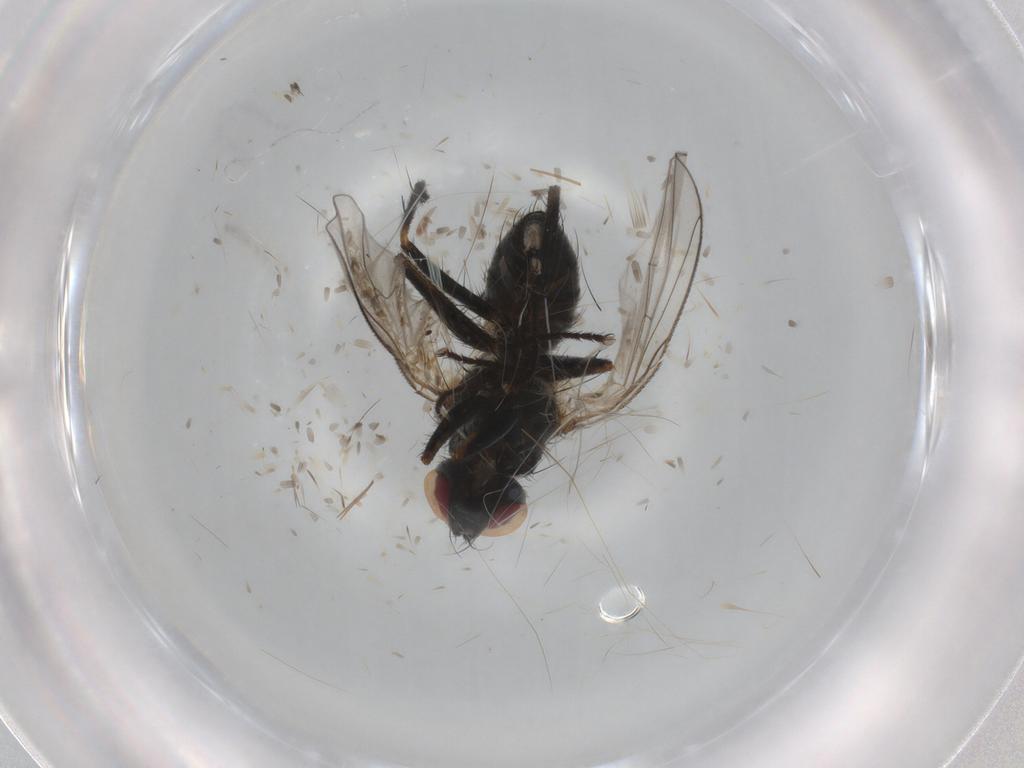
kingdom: Animalia
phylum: Arthropoda
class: Insecta
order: Diptera
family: Muscidae
